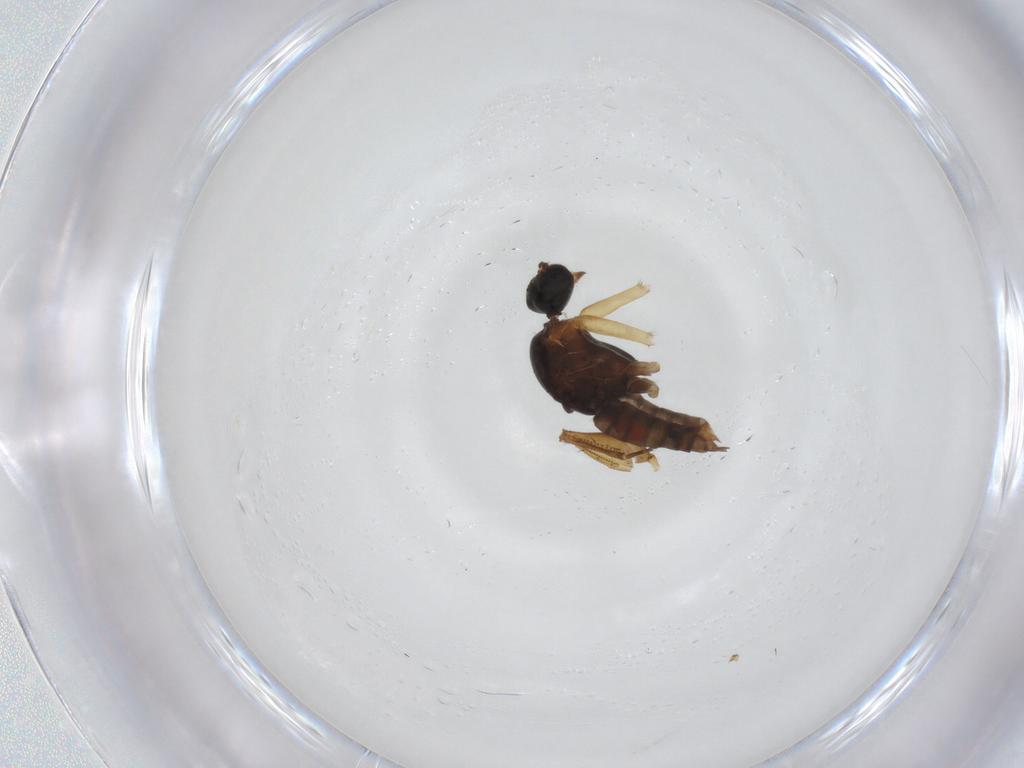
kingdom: Animalia
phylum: Arthropoda
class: Insecta
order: Diptera
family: Empididae
